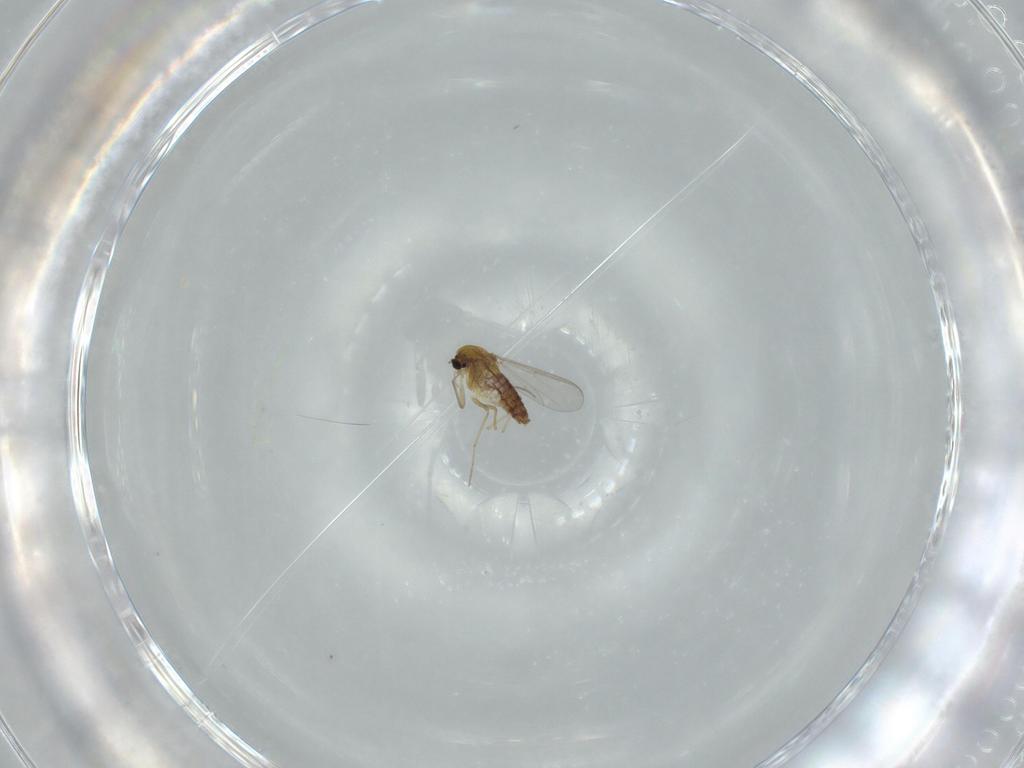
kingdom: Animalia
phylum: Arthropoda
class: Insecta
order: Diptera
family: Chironomidae
